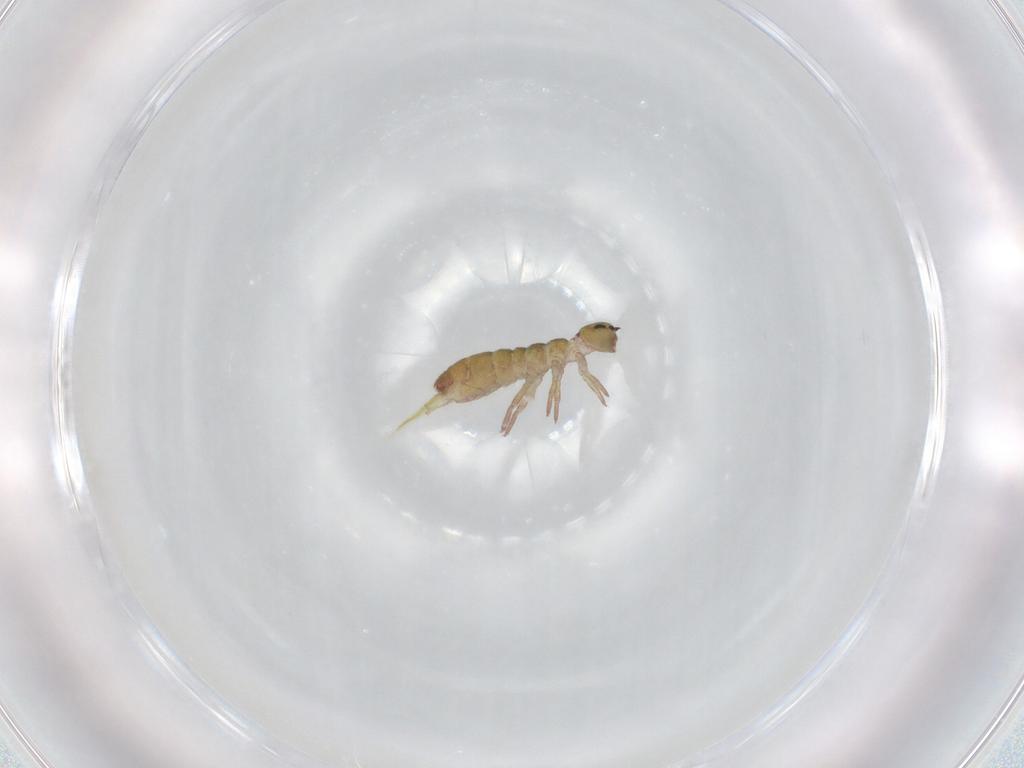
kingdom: Animalia
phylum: Arthropoda
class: Collembola
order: Entomobryomorpha
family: Isotomidae
